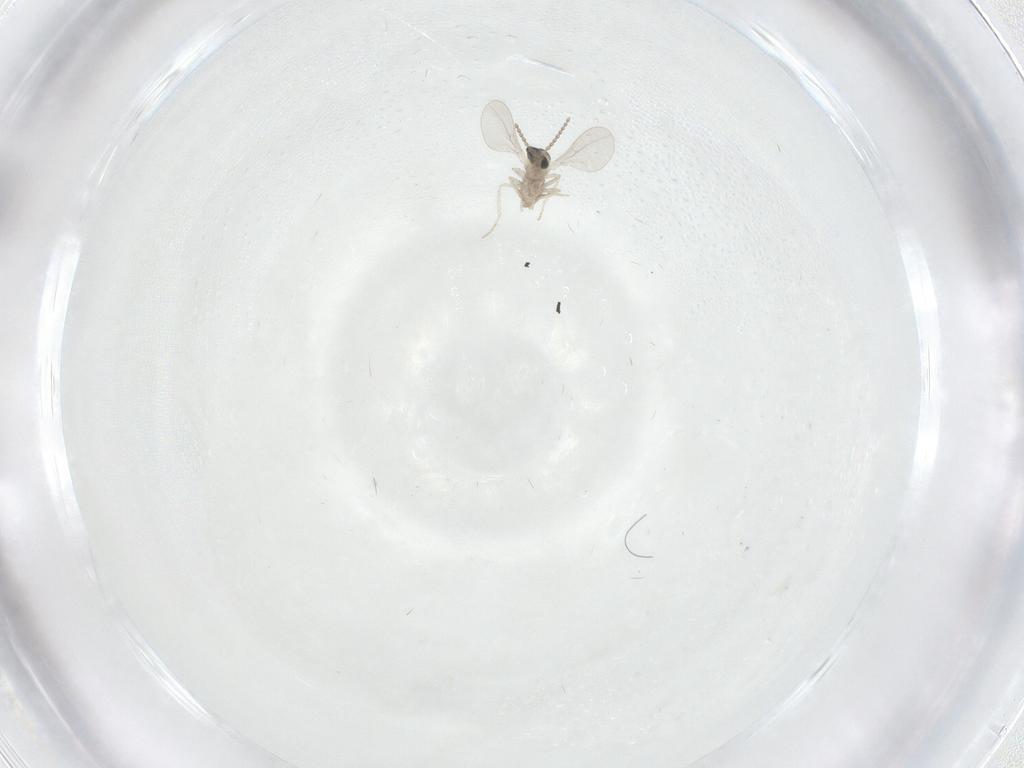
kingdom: Animalia
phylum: Arthropoda
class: Insecta
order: Diptera
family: Cecidomyiidae
